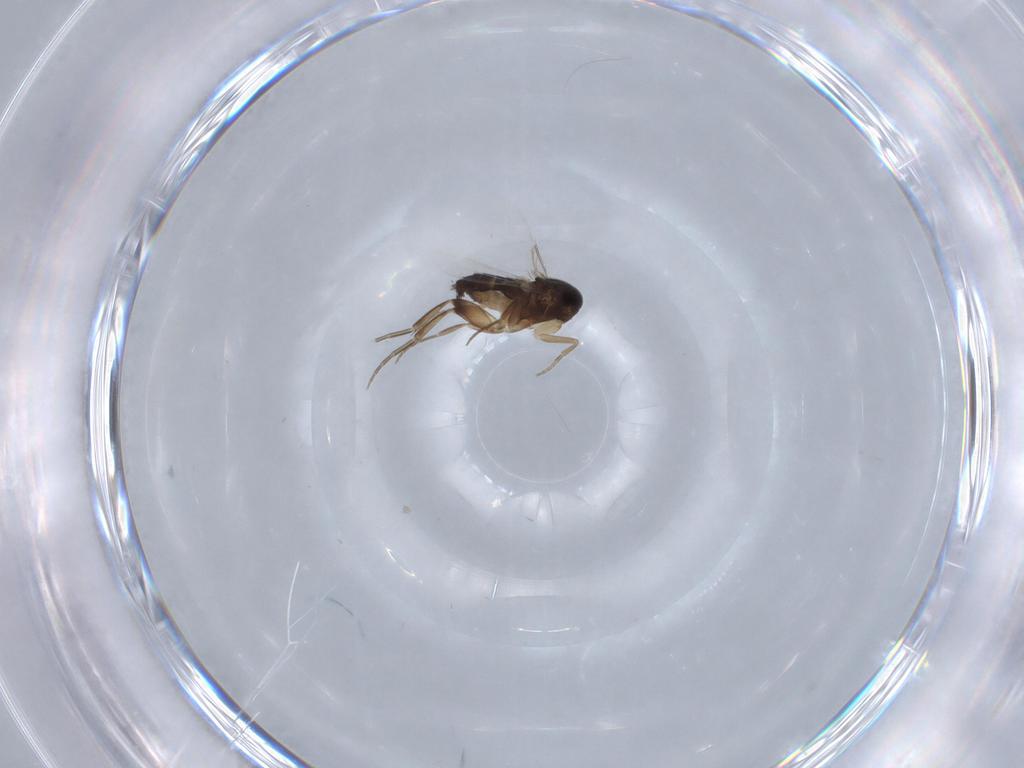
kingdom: Animalia
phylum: Arthropoda
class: Insecta
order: Diptera
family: Phoridae
